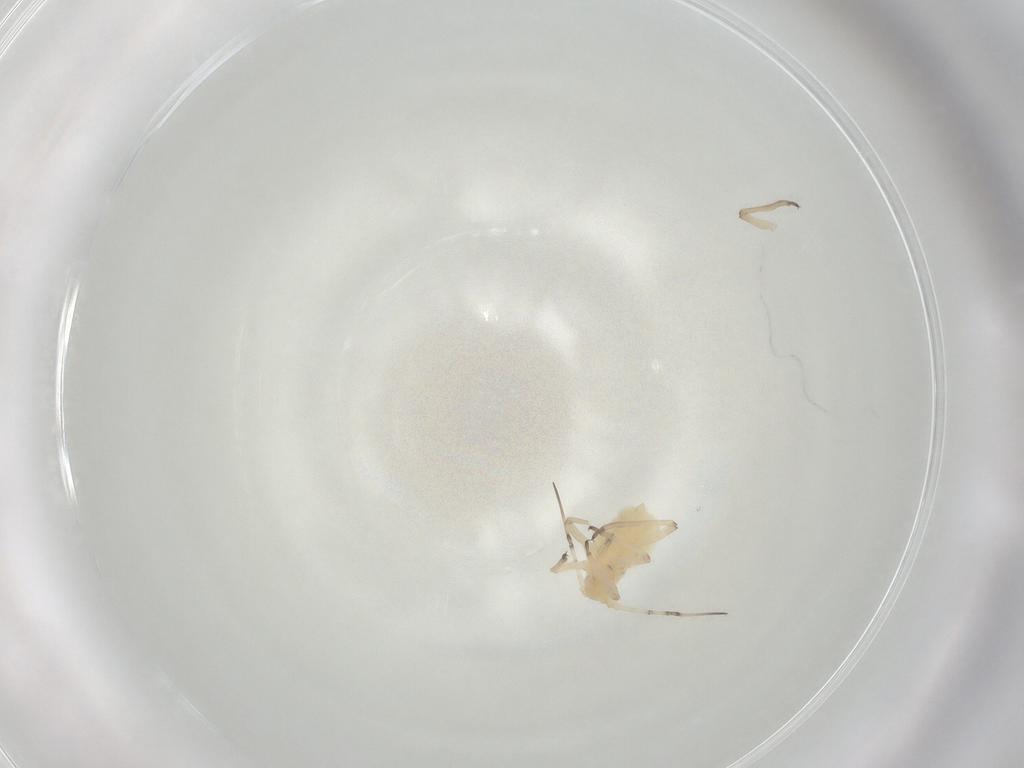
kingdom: Animalia
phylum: Arthropoda
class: Insecta
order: Hemiptera
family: Aphididae
